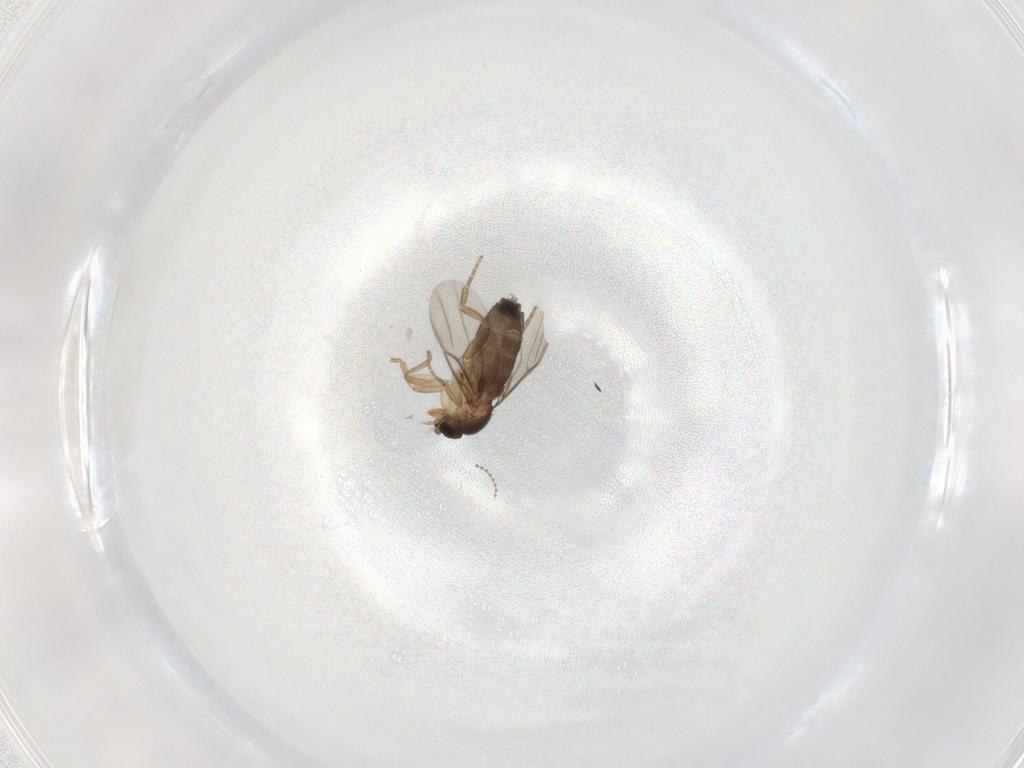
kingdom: Animalia
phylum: Arthropoda
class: Insecta
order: Diptera
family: Phoridae
